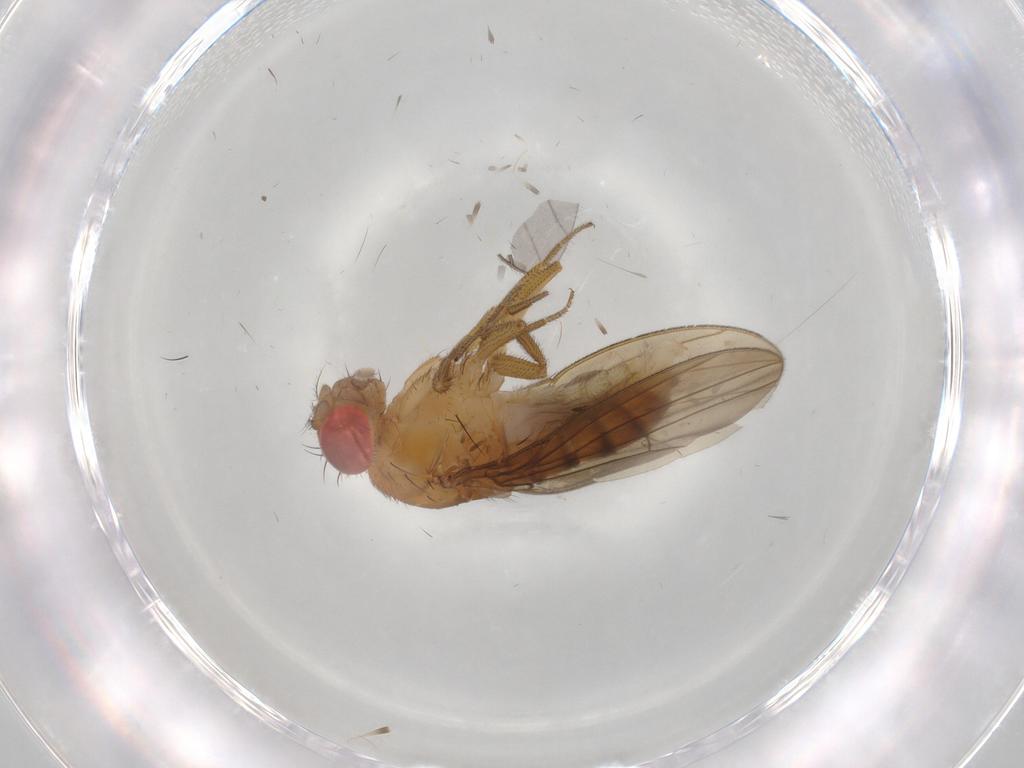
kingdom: Animalia
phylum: Arthropoda
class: Insecta
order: Diptera
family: Drosophilidae
